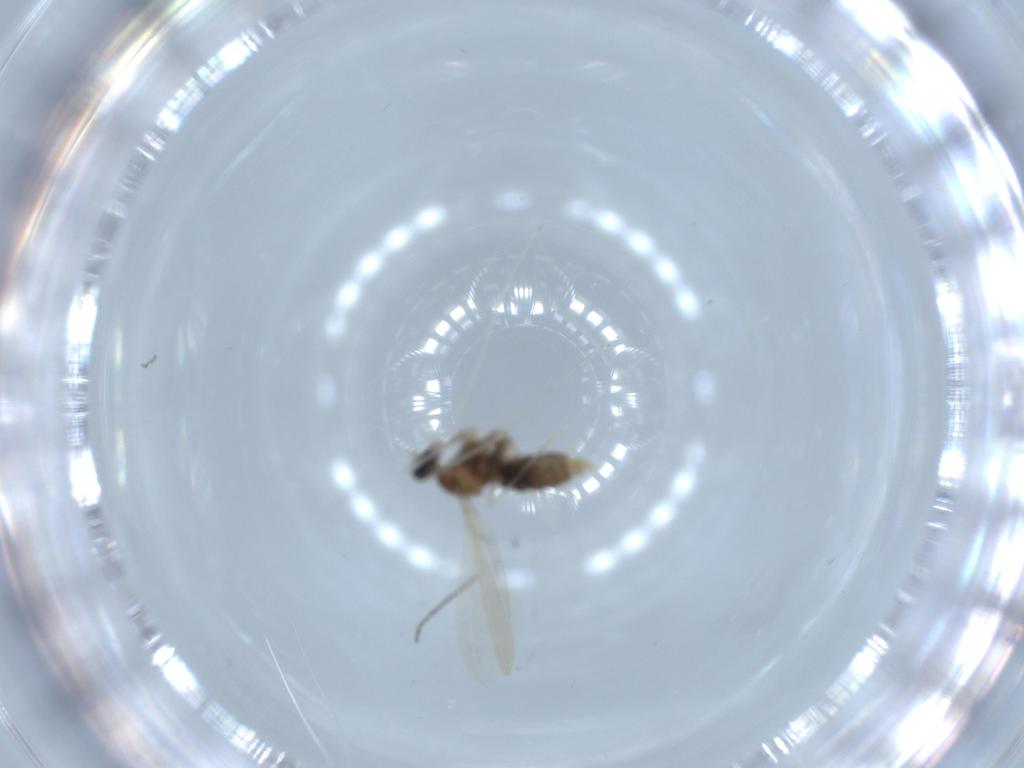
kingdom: Animalia
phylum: Arthropoda
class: Insecta
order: Diptera
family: Cecidomyiidae
